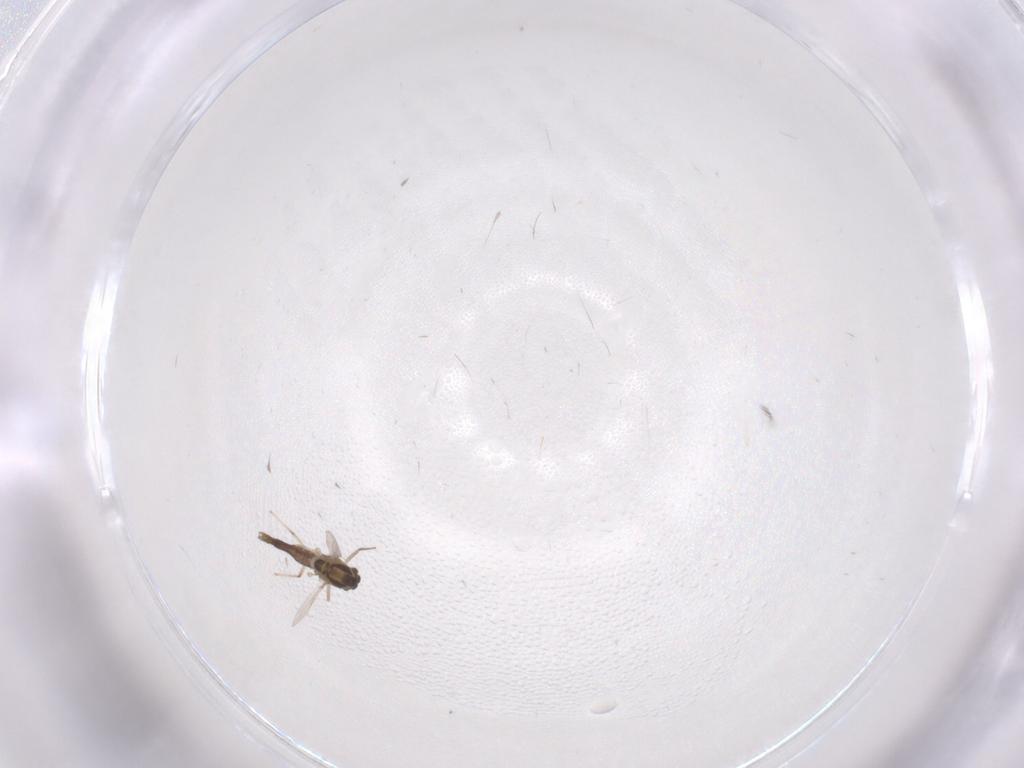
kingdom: Animalia
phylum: Arthropoda
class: Insecta
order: Diptera
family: Chironomidae
